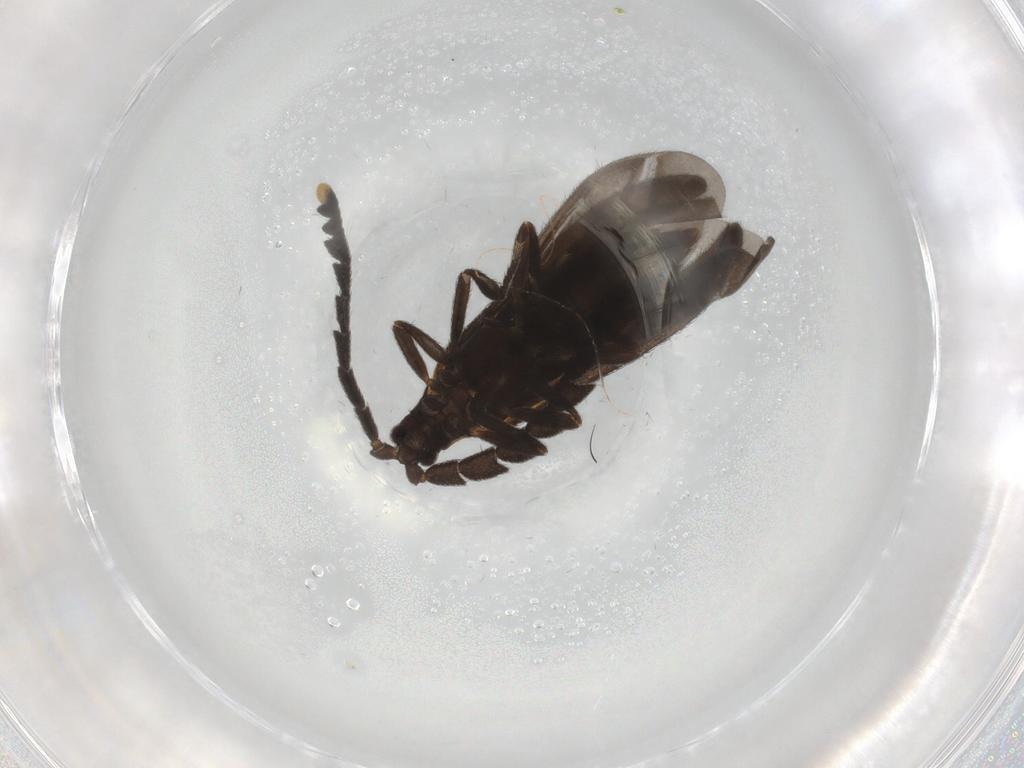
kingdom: Animalia
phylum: Arthropoda
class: Insecta
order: Coleoptera
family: Lycidae
